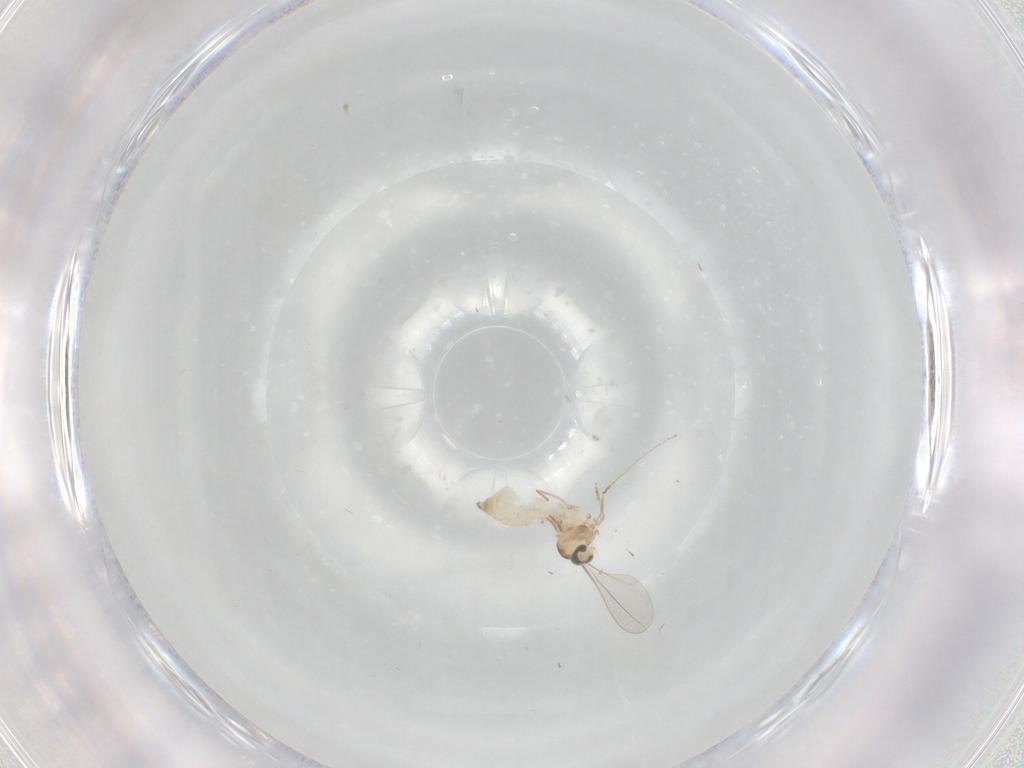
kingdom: Animalia
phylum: Arthropoda
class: Insecta
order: Diptera
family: Cecidomyiidae
